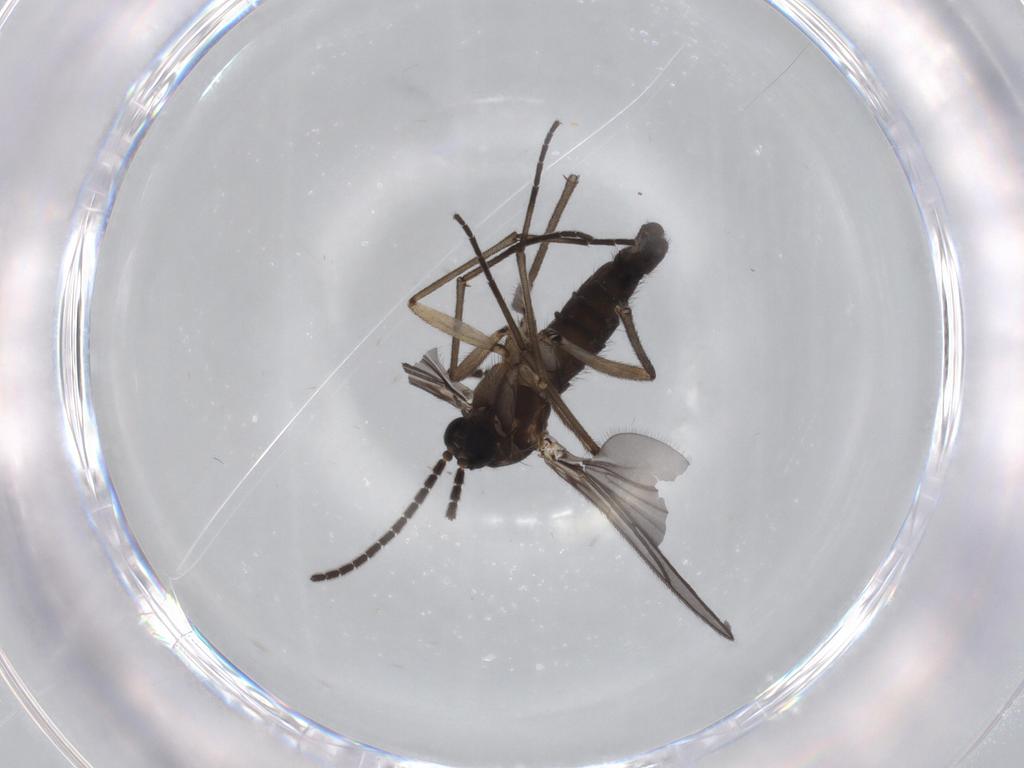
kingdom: Animalia
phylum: Arthropoda
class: Insecta
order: Diptera
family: Sciaridae
